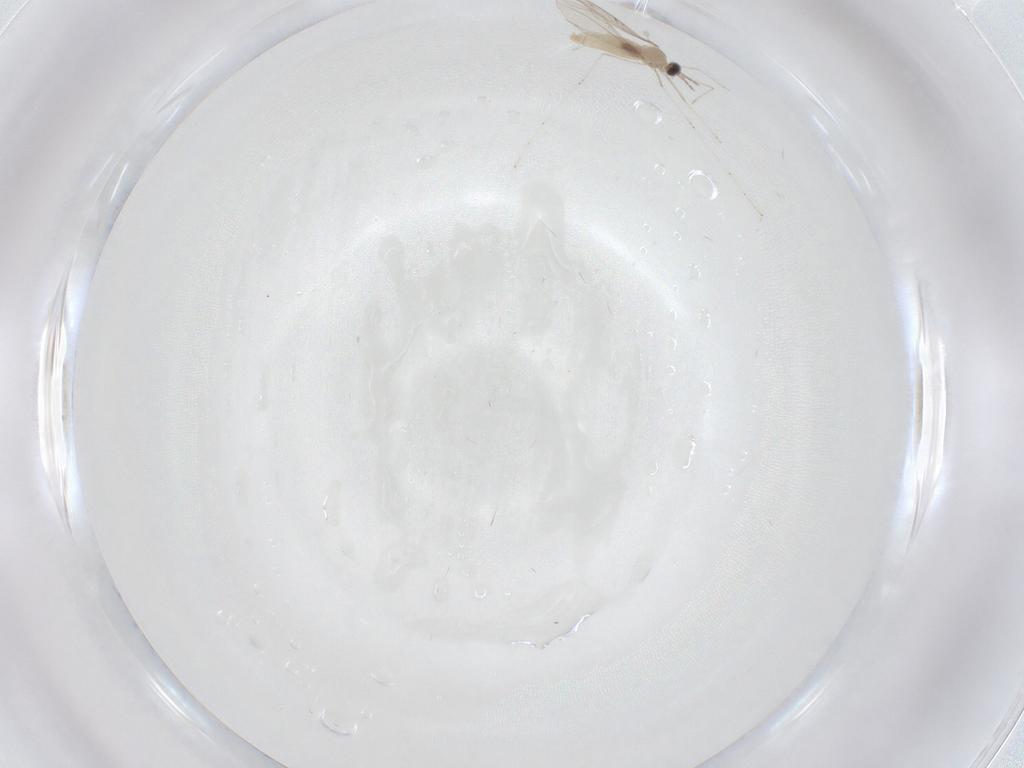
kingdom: Animalia
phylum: Arthropoda
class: Insecta
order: Diptera
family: Cecidomyiidae
